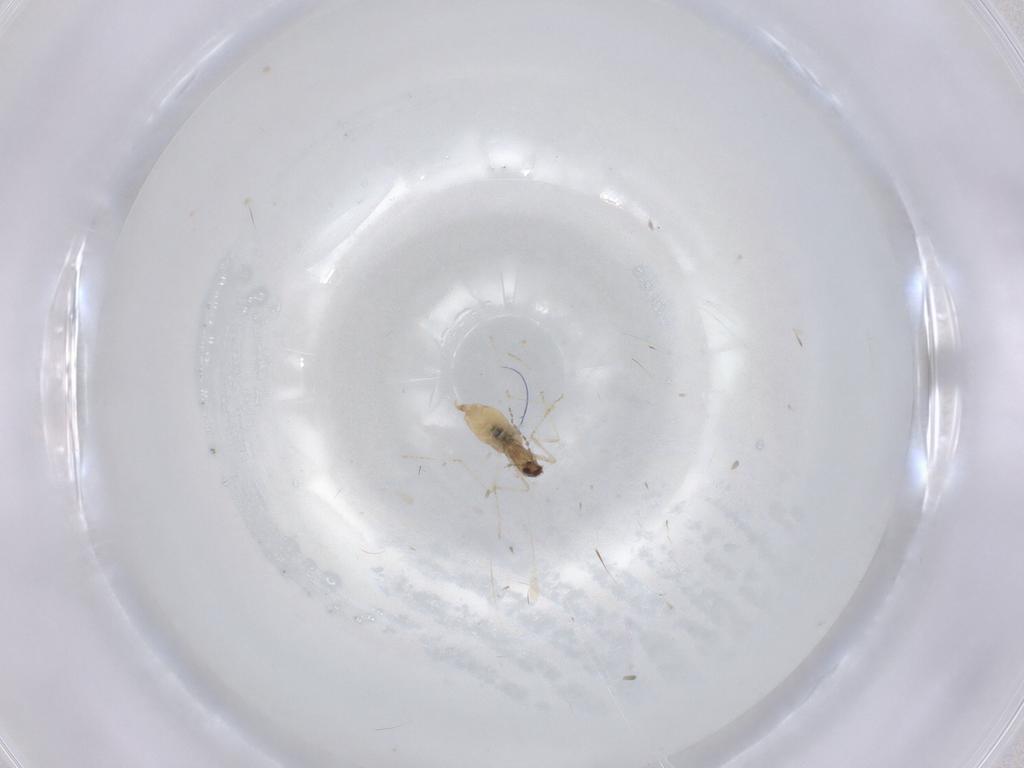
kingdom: Animalia
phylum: Arthropoda
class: Insecta
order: Diptera
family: Cecidomyiidae
